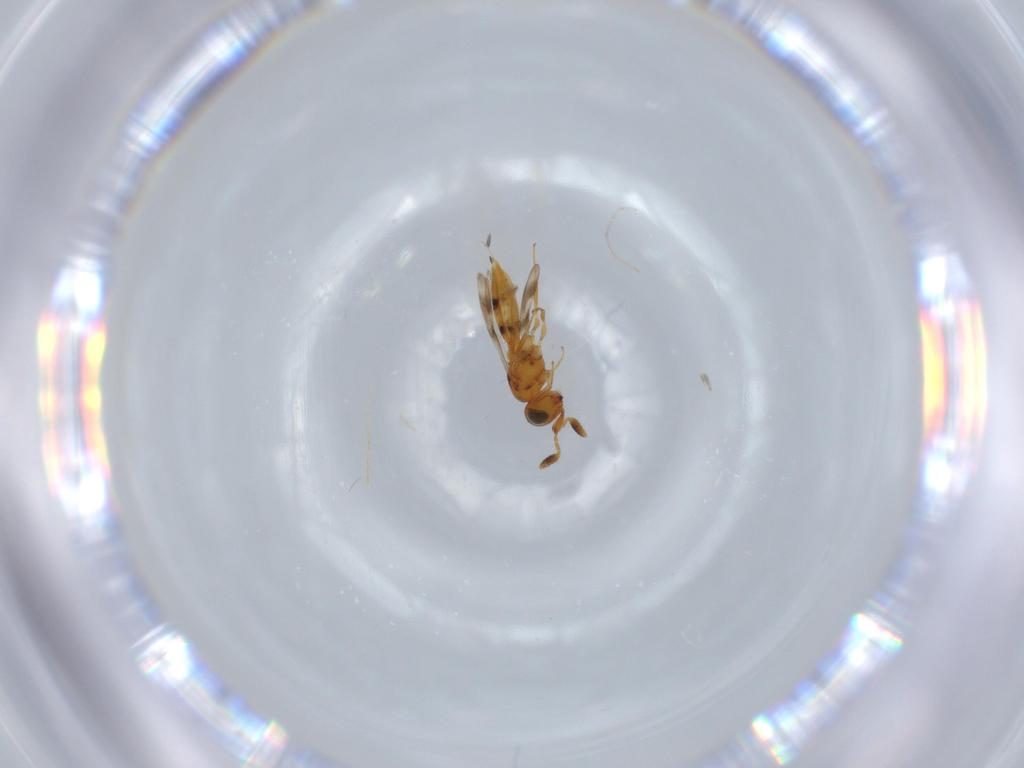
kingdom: Animalia
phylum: Arthropoda
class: Insecta
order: Hymenoptera
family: Scelionidae
